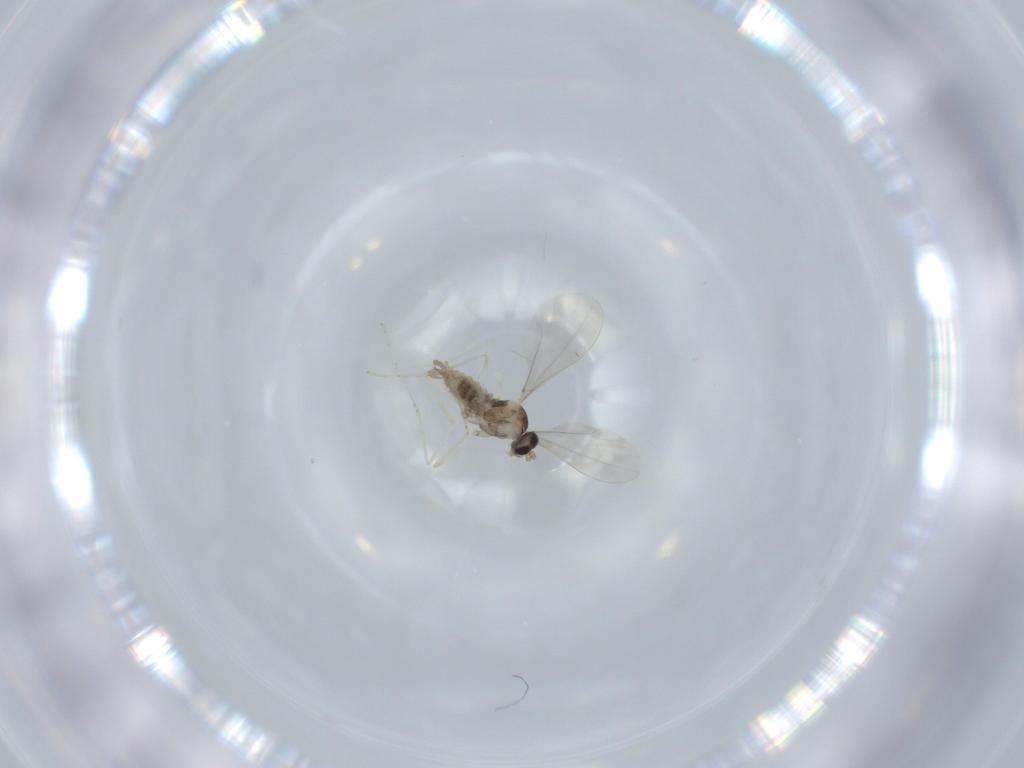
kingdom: Animalia
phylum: Arthropoda
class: Insecta
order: Diptera
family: Cecidomyiidae
